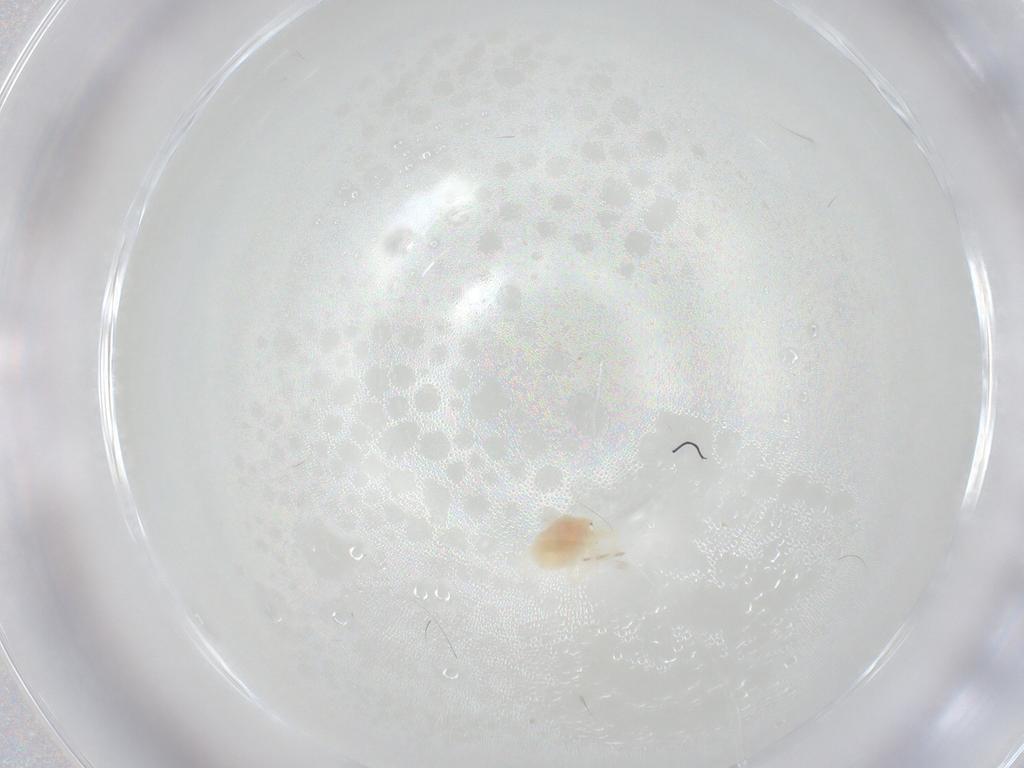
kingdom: Animalia
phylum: Arthropoda
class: Arachnida
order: Trombidiformes
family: Anystidae
